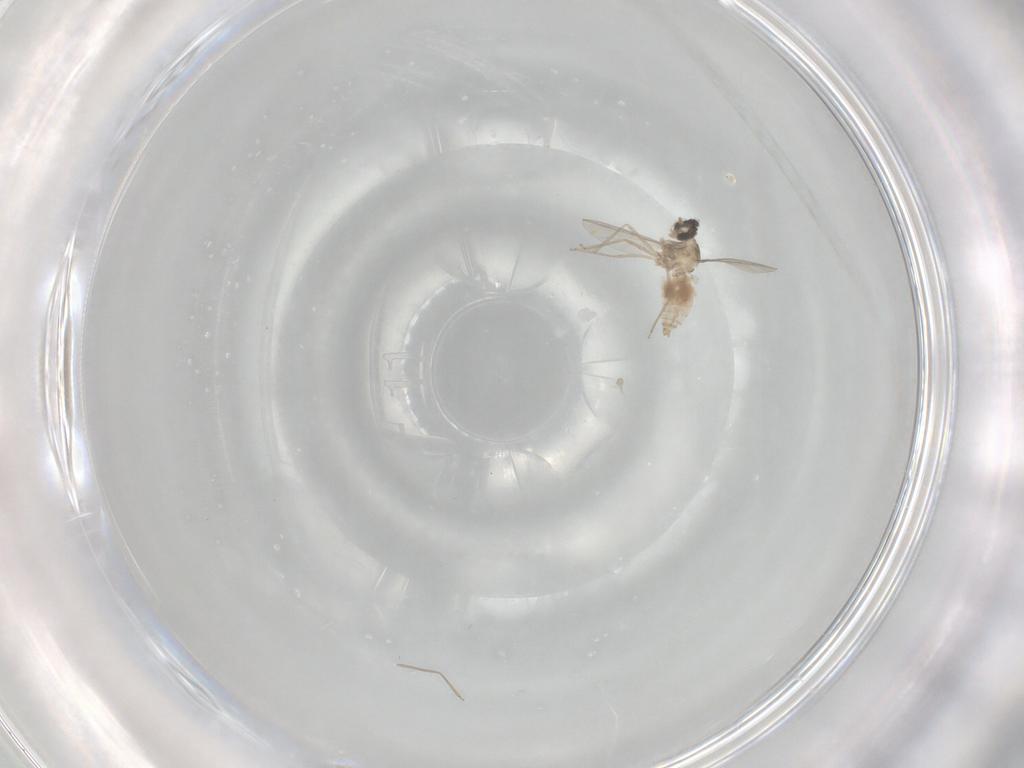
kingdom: Animalia
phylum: Arthropoda
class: Insecta
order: Diptera
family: Cecidomyiidae
